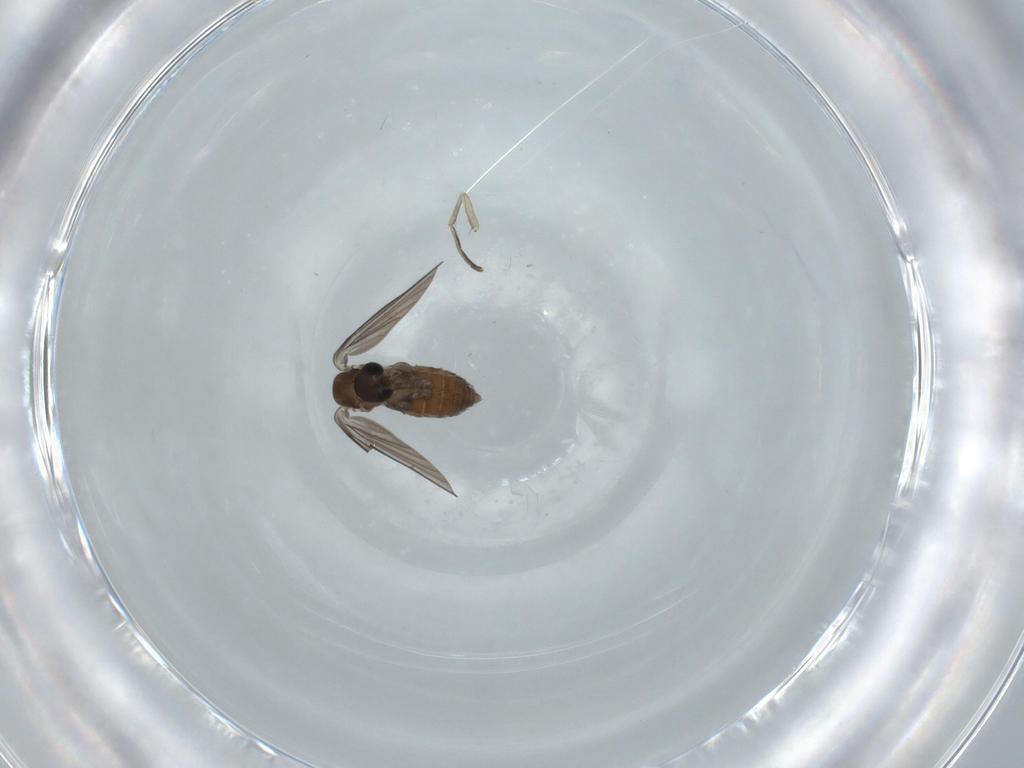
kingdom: Animalia
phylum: Arthropoda
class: Insecta
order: Diptera
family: Psychodidae
